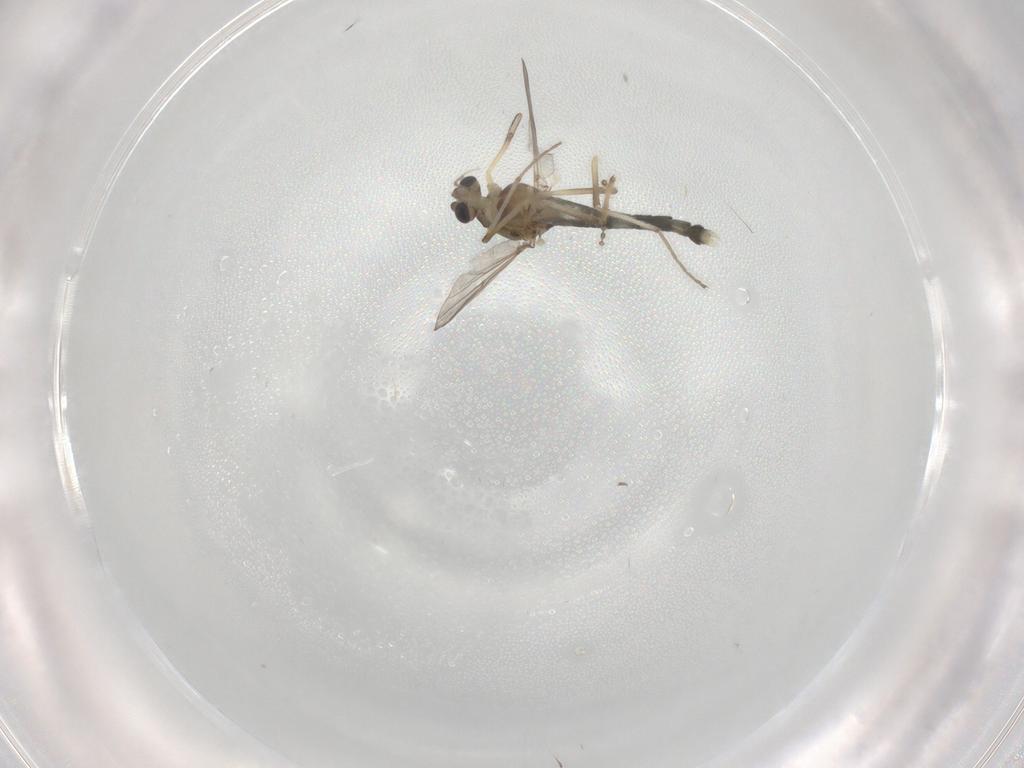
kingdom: Animalia
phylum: Arthropoda
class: Insecta
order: Diptera
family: Chironomidae
